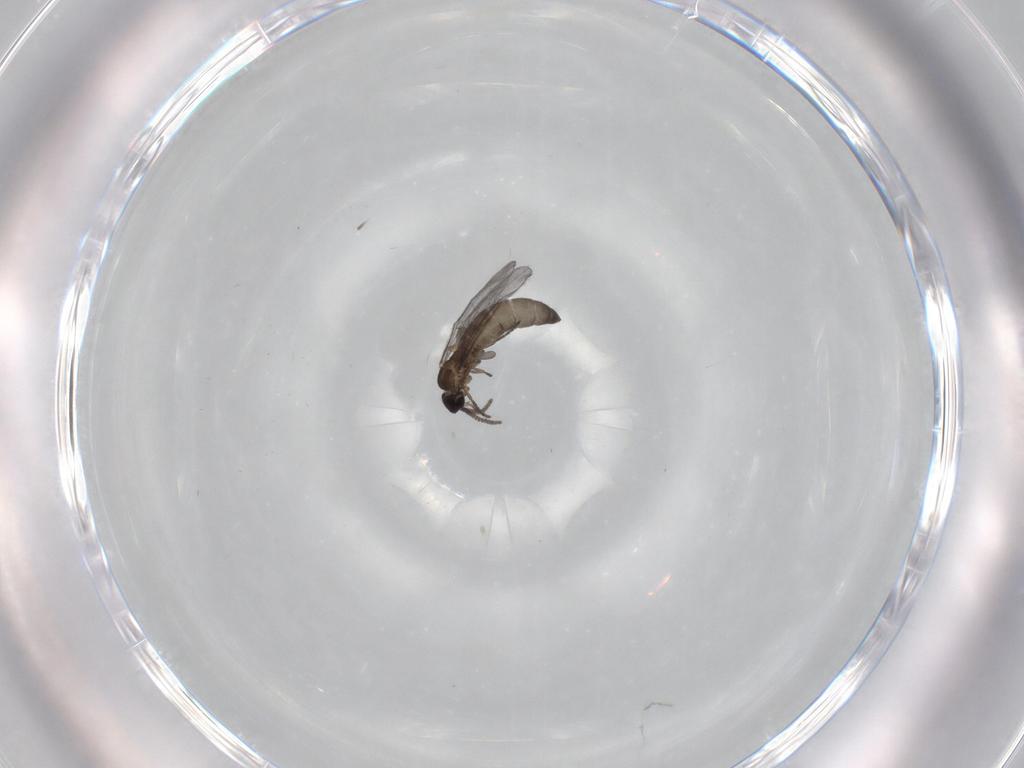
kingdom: Animalia
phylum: Arthropoda
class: Insecta
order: Diptera
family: Sciaridae
